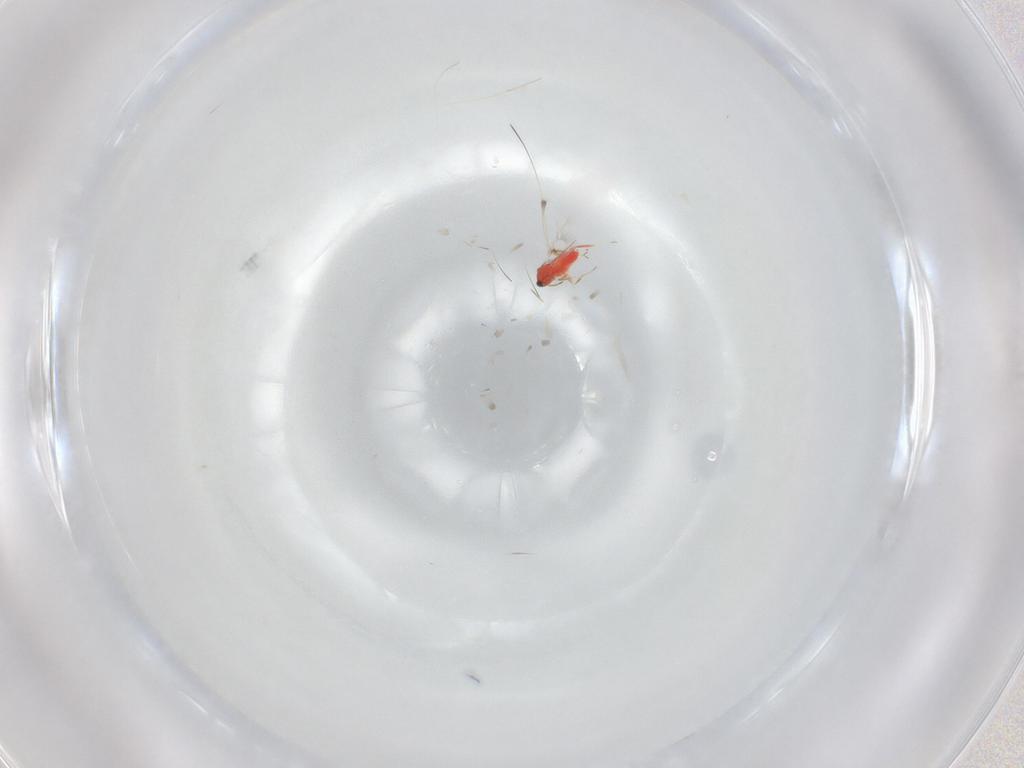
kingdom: Animalia
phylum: Arthropoda
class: Insecta
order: Hymenoptera
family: Trichogrammatidae
